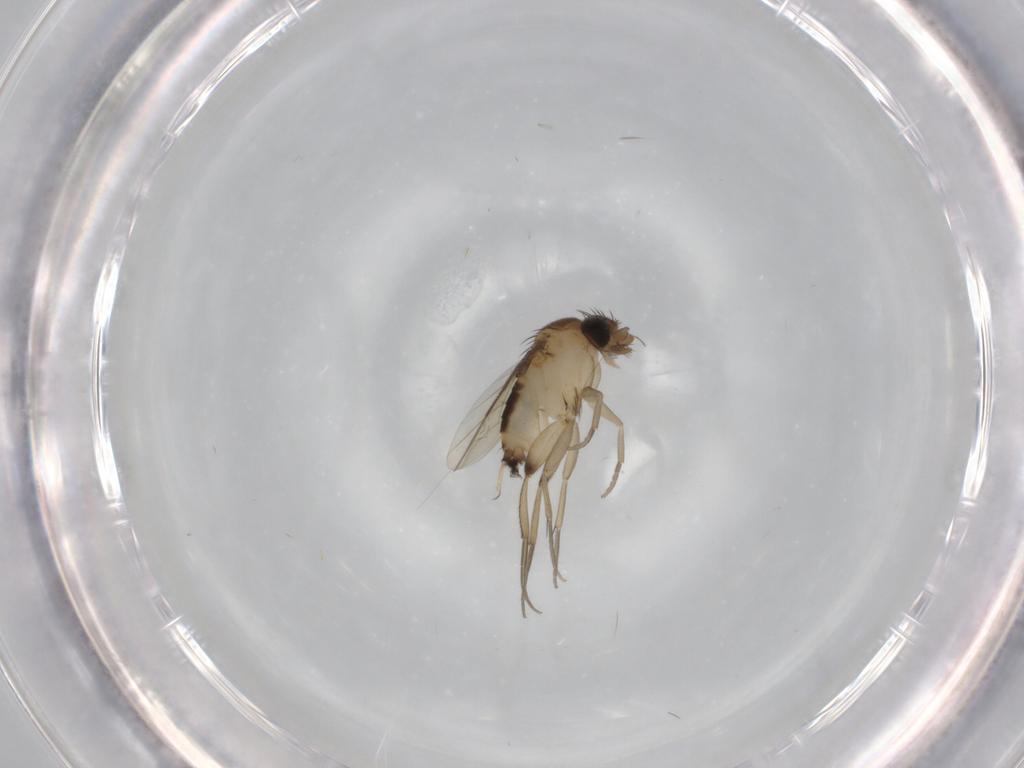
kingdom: Animalia
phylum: Arthropoda
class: Insecta
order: Diptera
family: Phoridae
